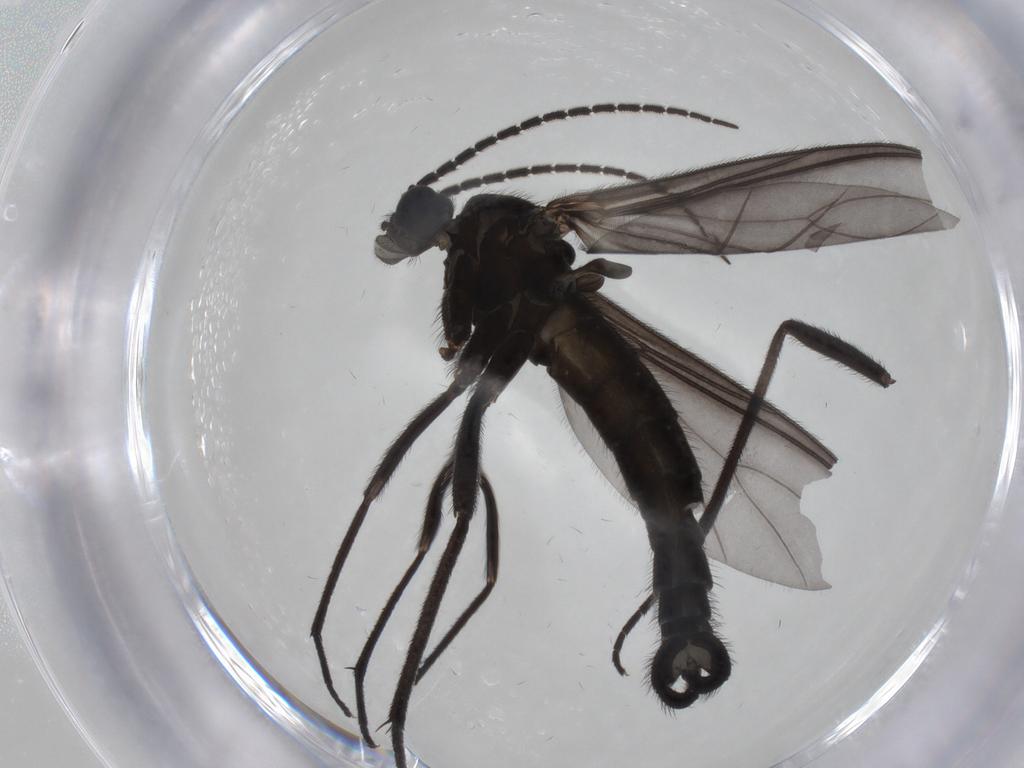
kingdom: Animalia
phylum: Arthropoda
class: Insecta
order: Diptera
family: Sciaridae
